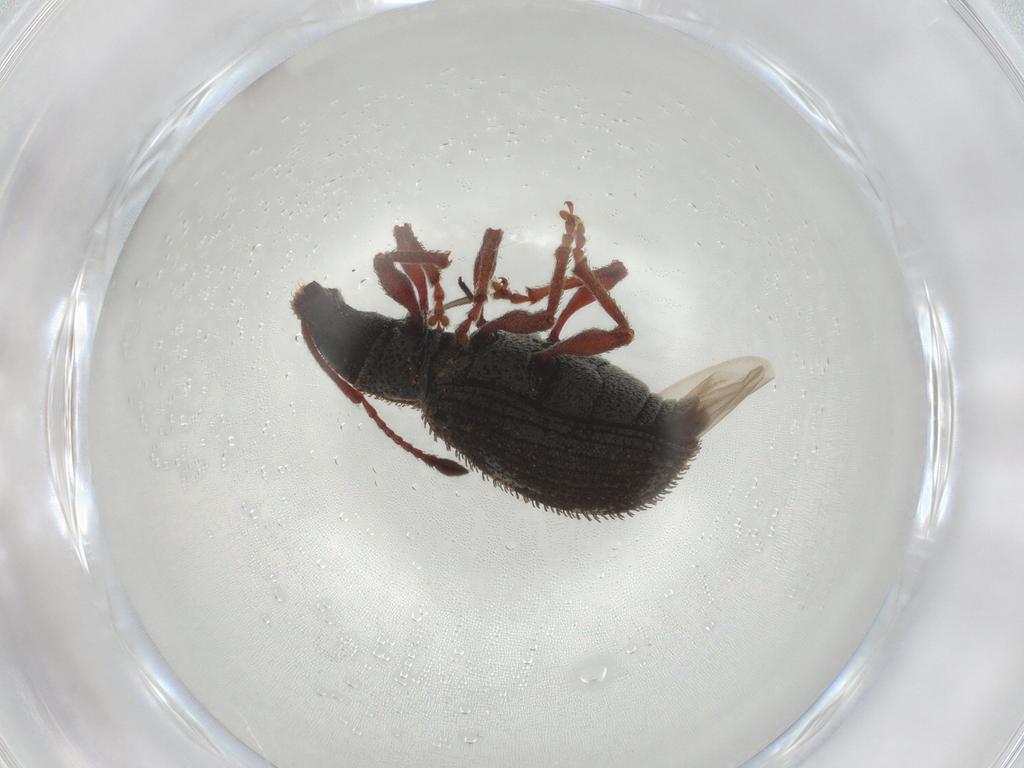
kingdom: Animalia
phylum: Arthropoda
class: Insecta
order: Coleoptera
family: Curculionidae
